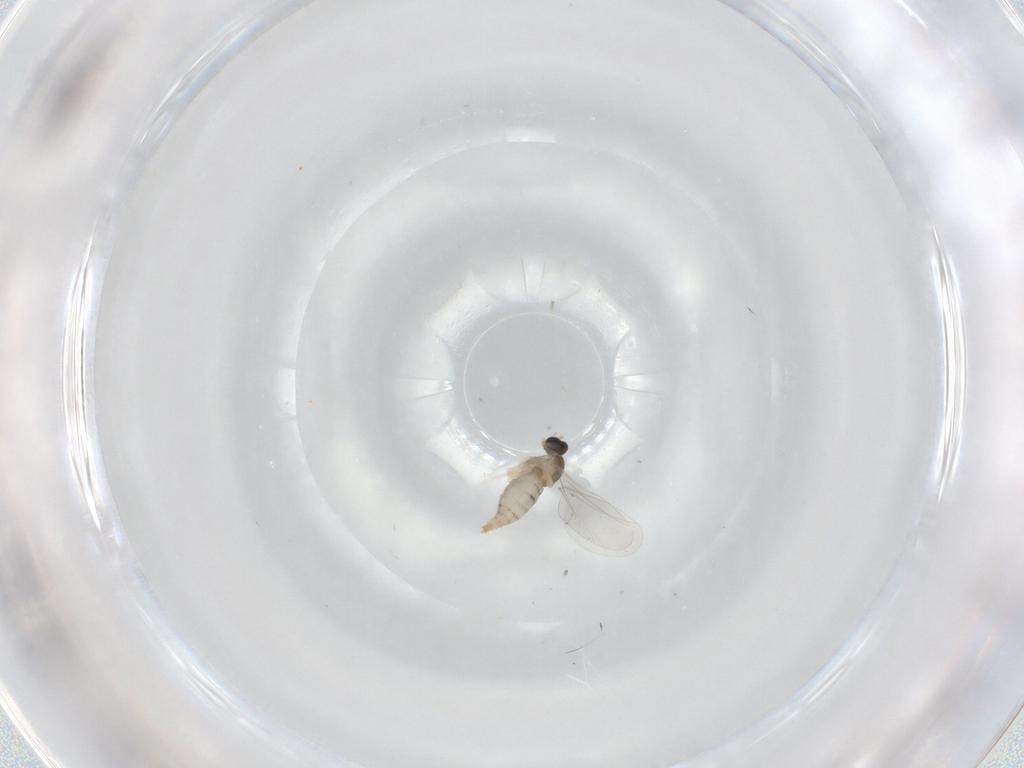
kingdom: Animalia
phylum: Arthropoda
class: Insecta
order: Diptera
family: Cecidomyiidae
